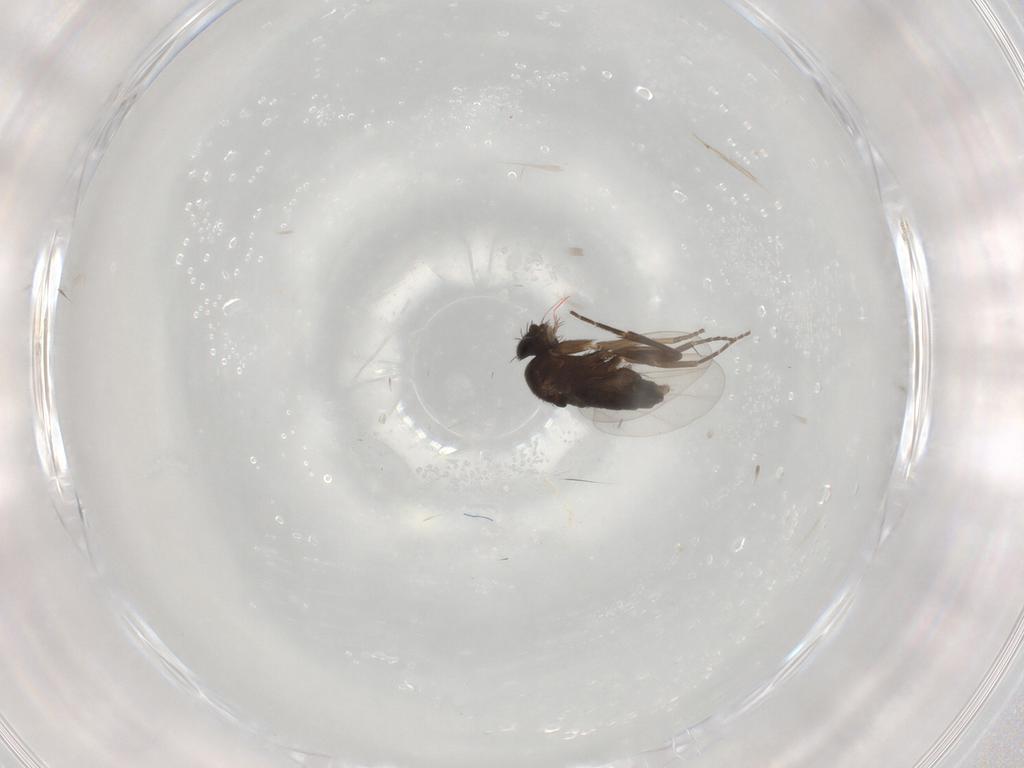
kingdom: Animalia
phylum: Arthropoda
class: Insecta
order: Diptera
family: Phoridae
